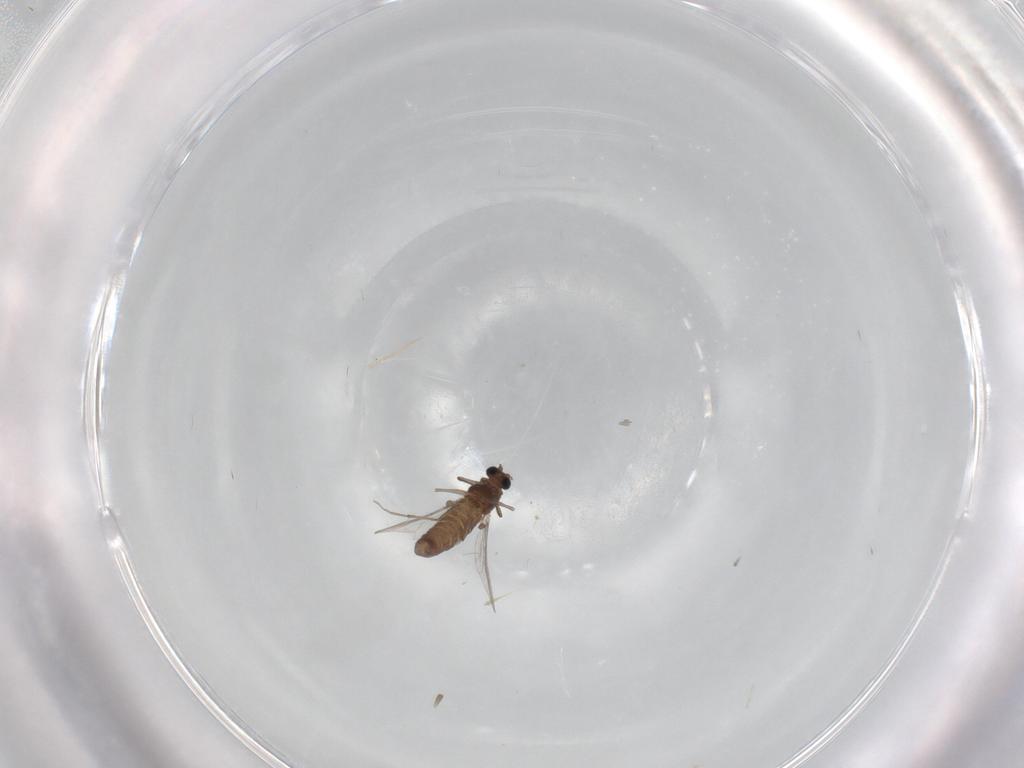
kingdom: Animalia
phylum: Arthropoda
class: Insecta
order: Diptera
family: Chironomidae
